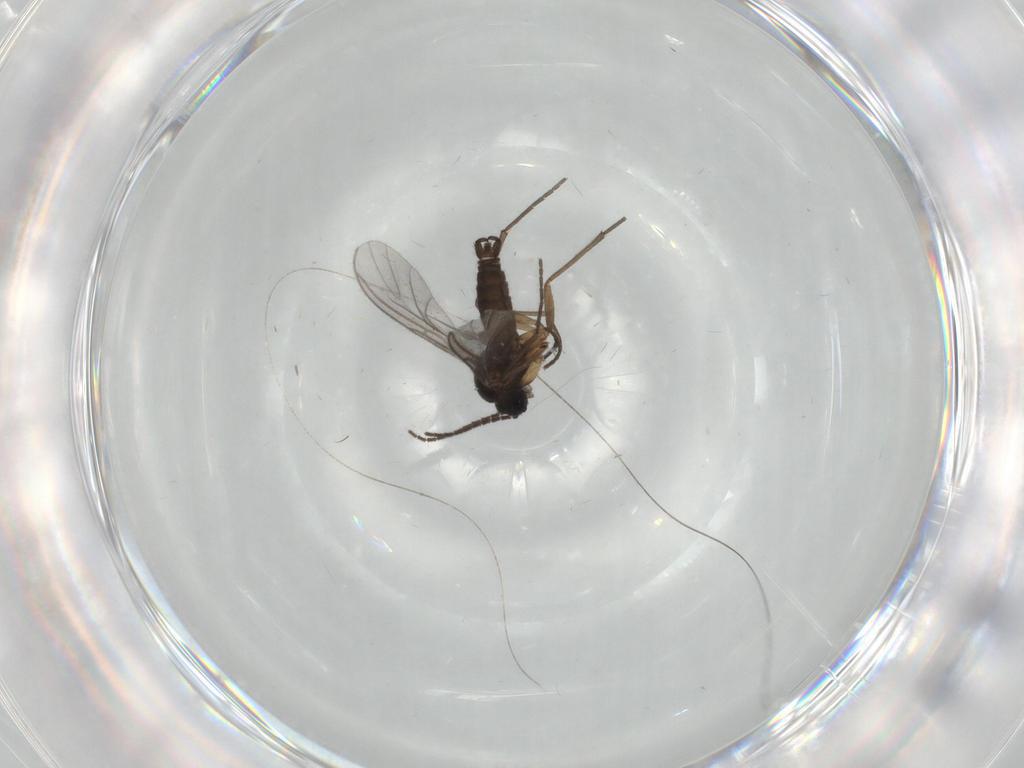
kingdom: Animalia
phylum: Arthropoda
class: Insecta
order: Diptera
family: Sciaridae
